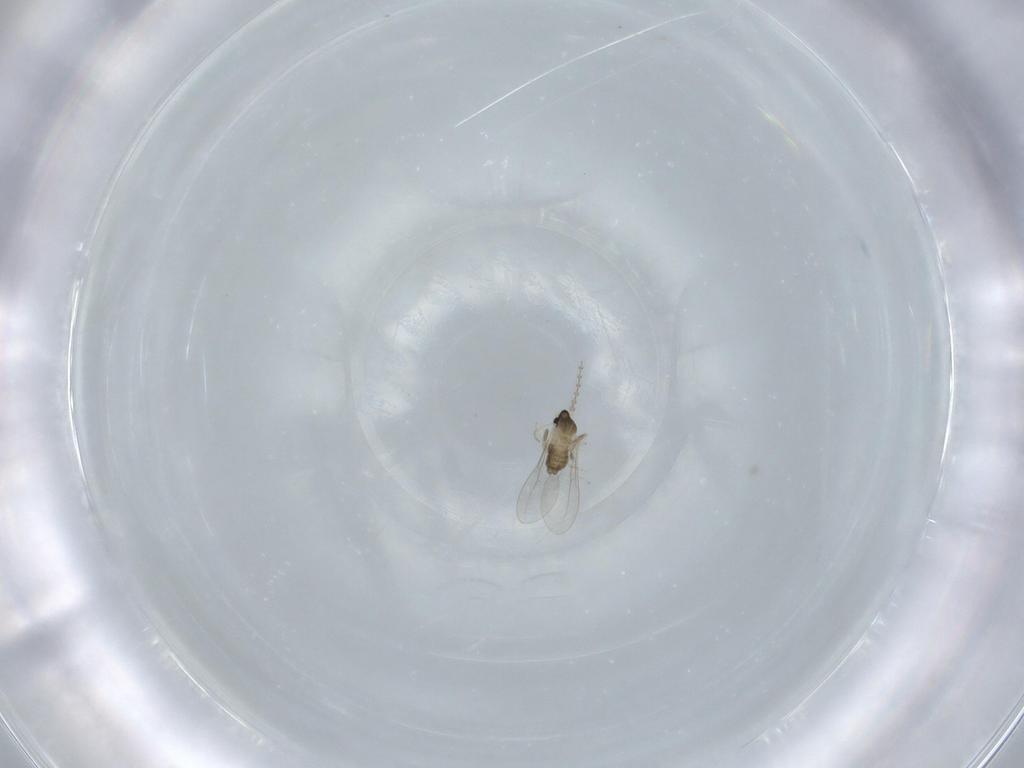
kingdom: Animalia
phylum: Arthropoda
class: Insecta
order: Diptera
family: Cecidomyiidae
